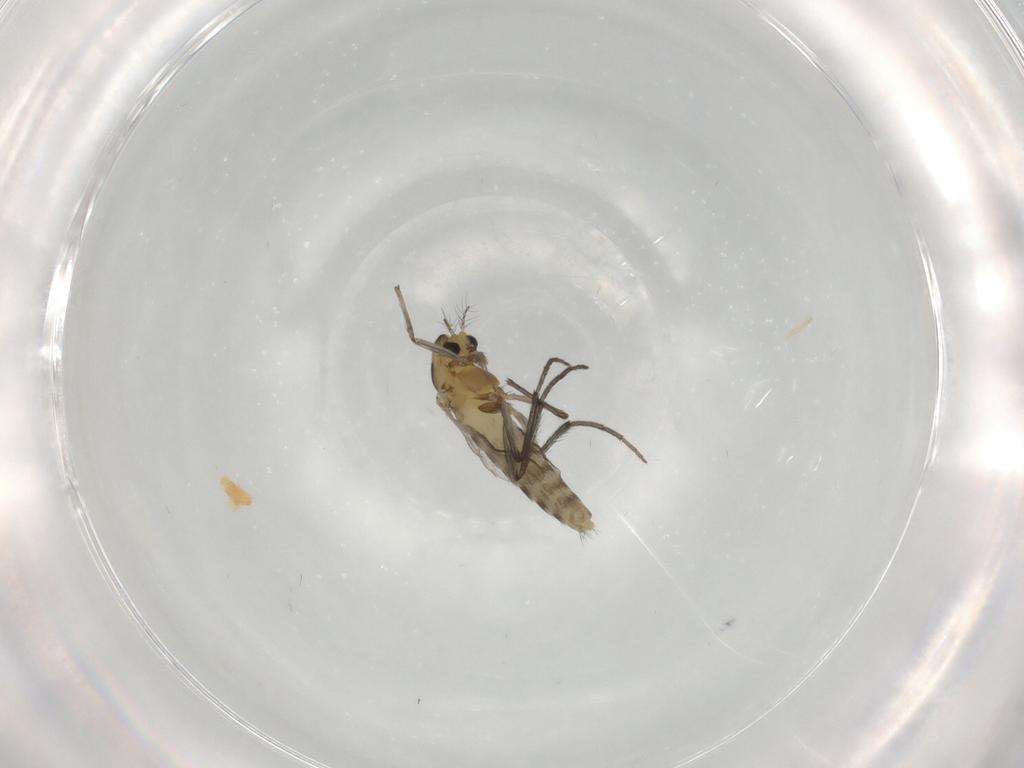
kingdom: Animalia
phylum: Arthropoda
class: Insecta
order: Diptera
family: Chironomidae
